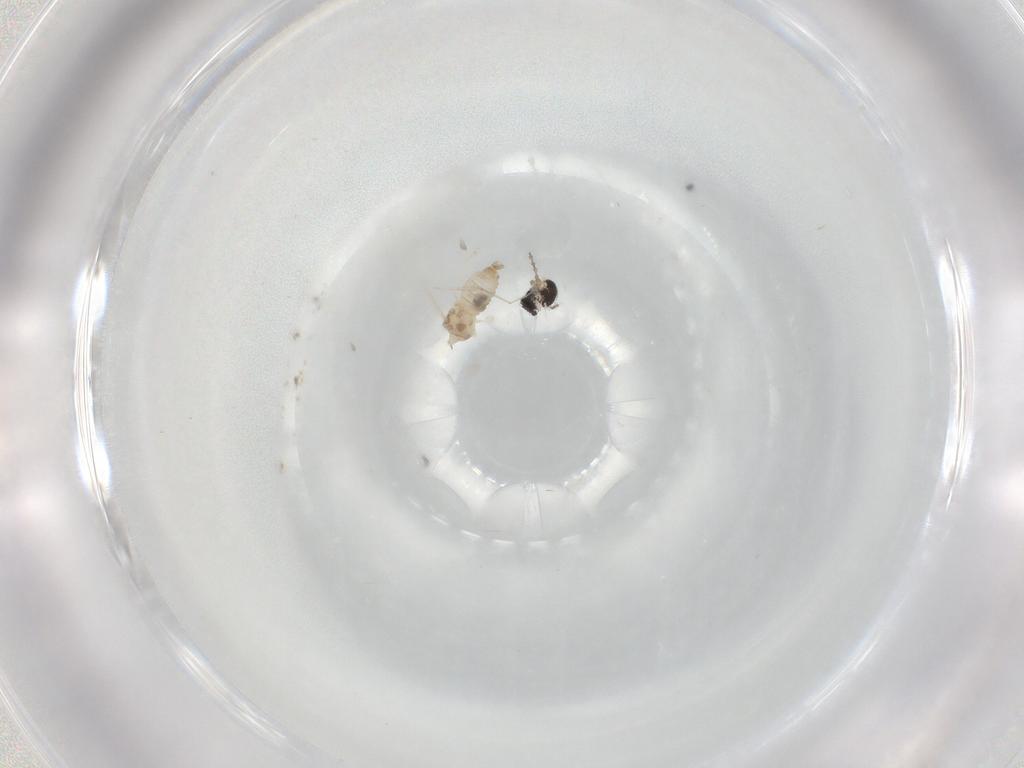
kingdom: Animalia
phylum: Arthropoda
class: Insecta
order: Diptera
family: Cecidomyiidae
